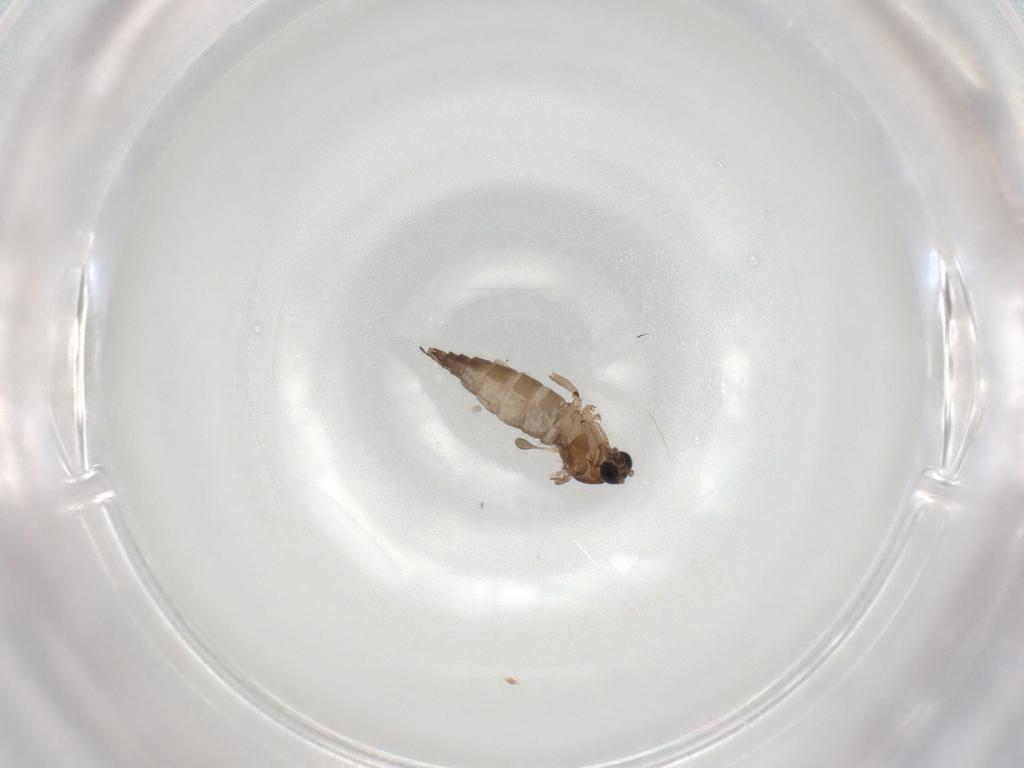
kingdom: Animalia
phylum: Arthropoda
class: Insecta
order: Diptera
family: Sciaridae
